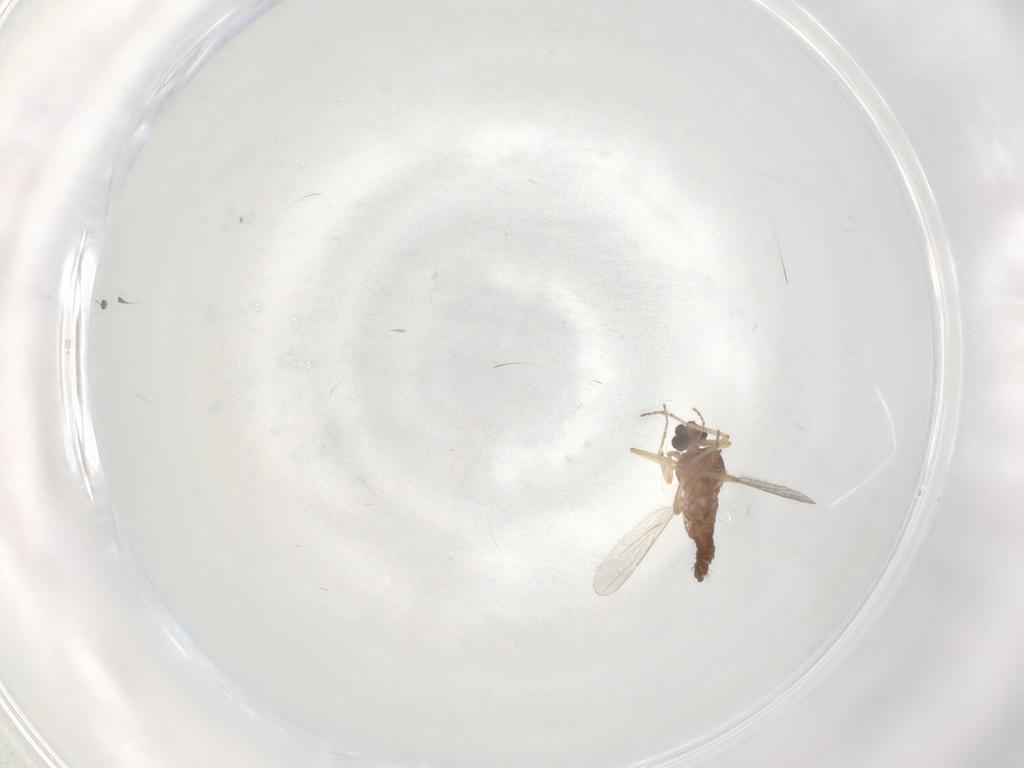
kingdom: Animalia
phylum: Arthropoda
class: Insecta
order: Diptera
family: Ceratopogonidae
